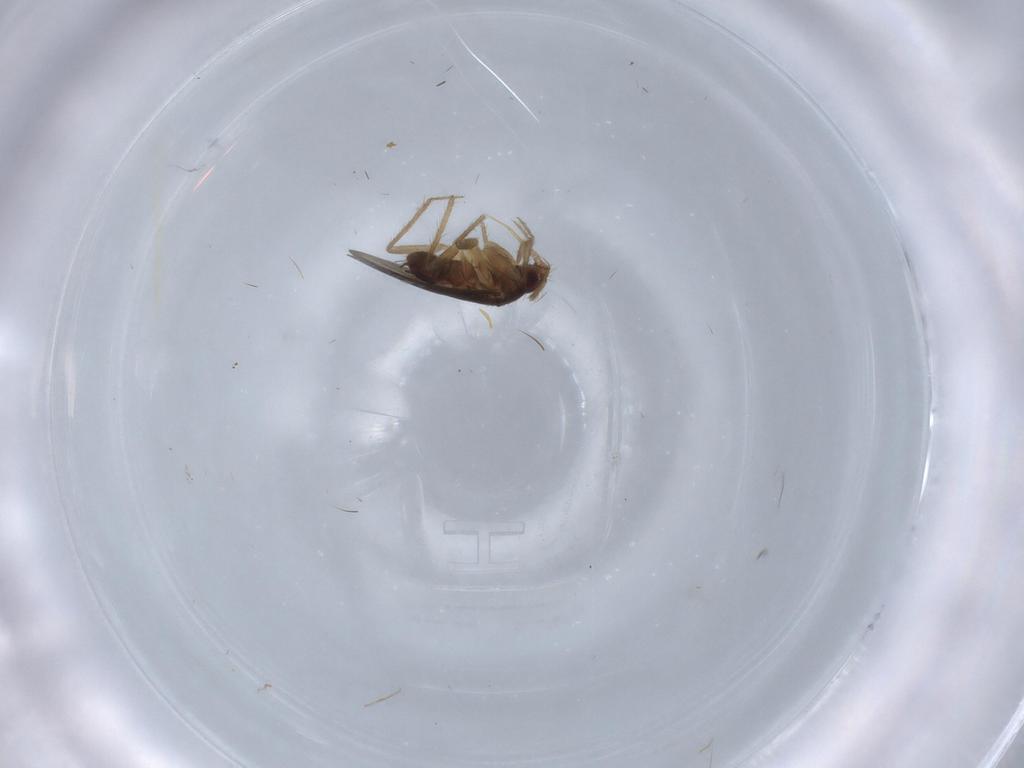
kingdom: Animalia
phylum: Arthropoda
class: Insecta
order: Hemiptera
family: Ceratocombidae
